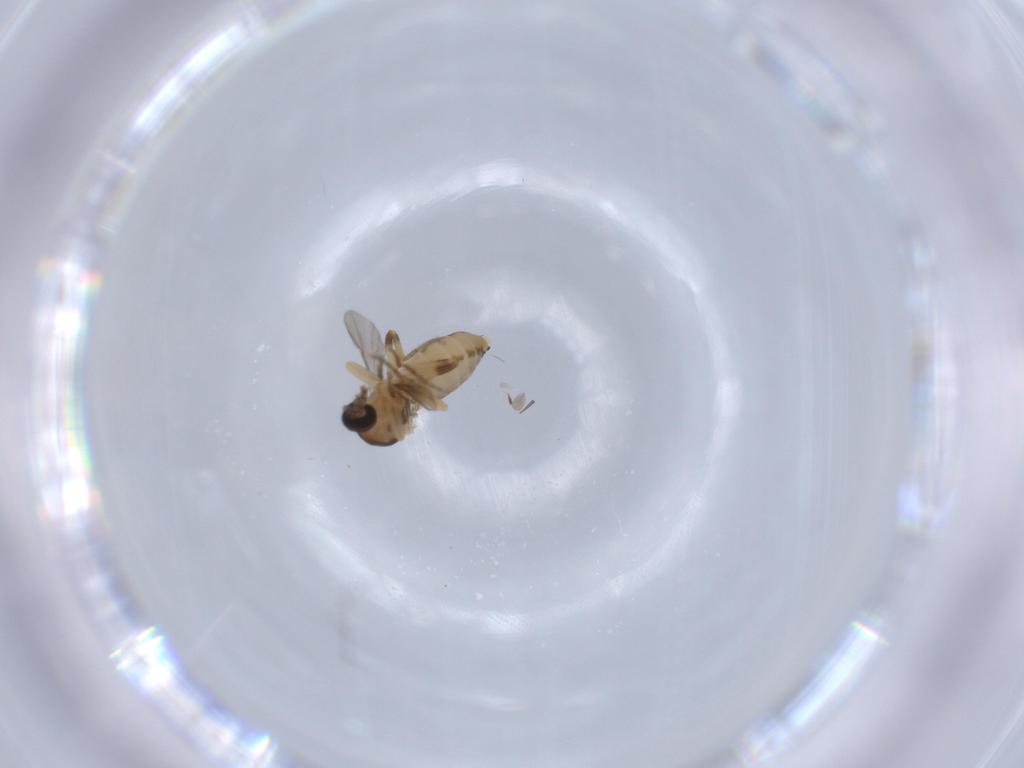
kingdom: Animalia
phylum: Arthropoda
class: Insecta
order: Diptera
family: Ceratopogonidae
